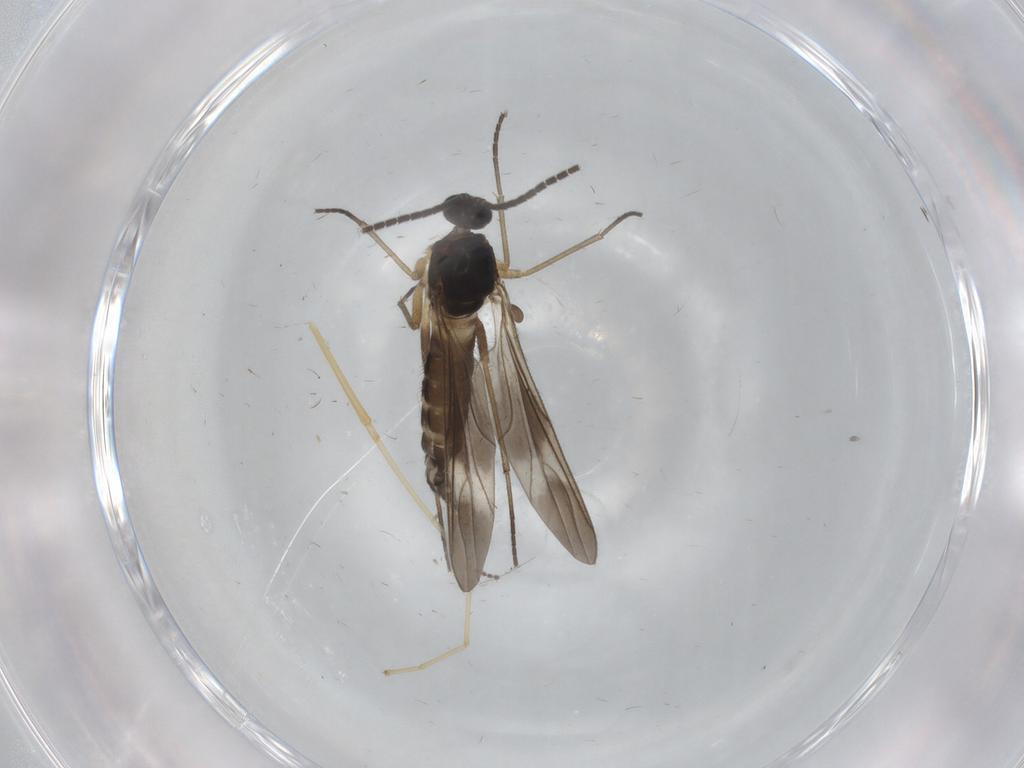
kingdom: Animalia
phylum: Arthropoda
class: Insecta
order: Diptera
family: Sciaridae
